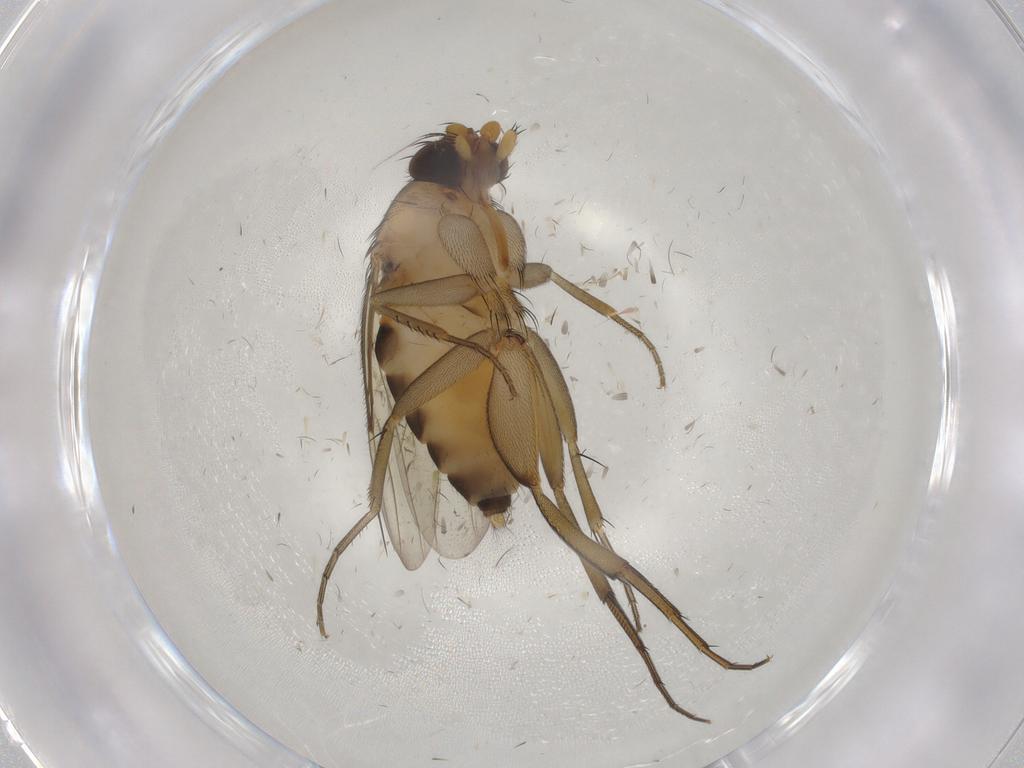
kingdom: Animalia
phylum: Arthropoda
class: Insecta
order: Diptera
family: Phoridae
